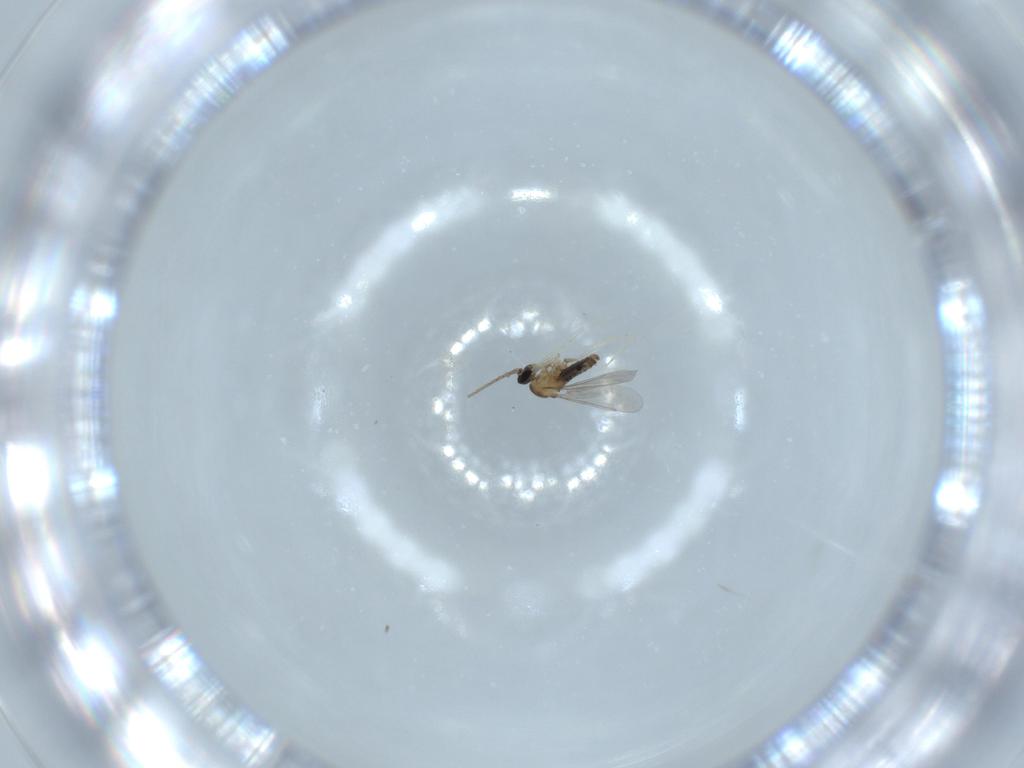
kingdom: Animalia
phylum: Arthropoda
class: Insecta
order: Diptera
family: Cecidomyiidae
